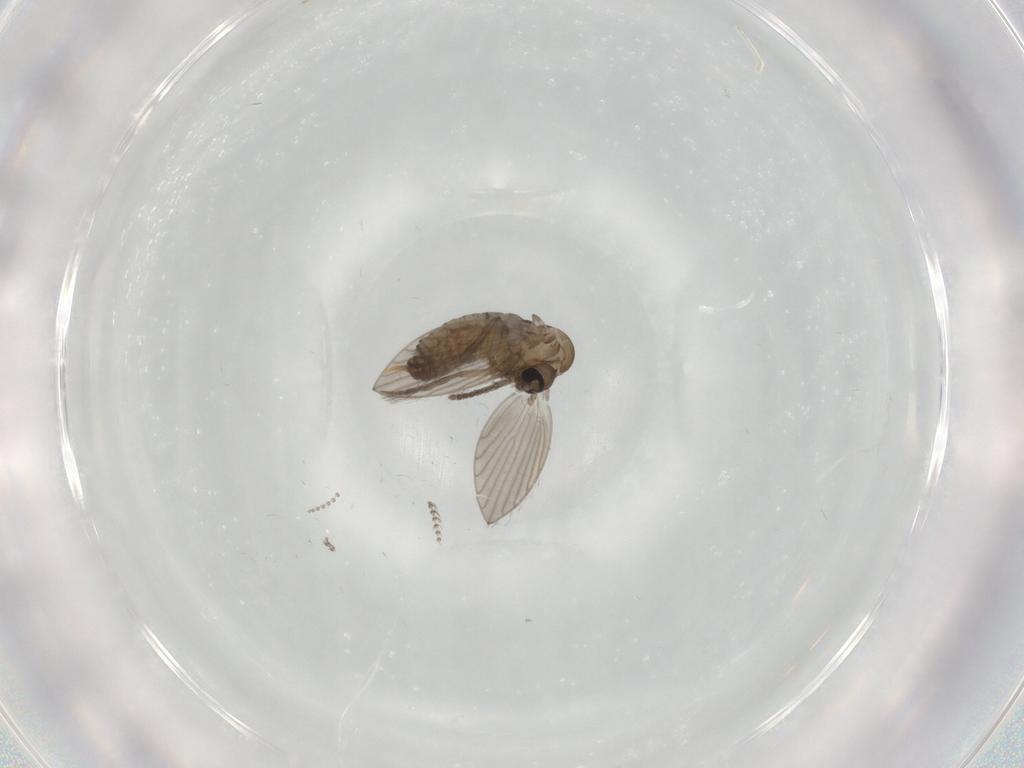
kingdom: Animalia
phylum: Arthropoda
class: Insecta
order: Diptera
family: Psychodidae
